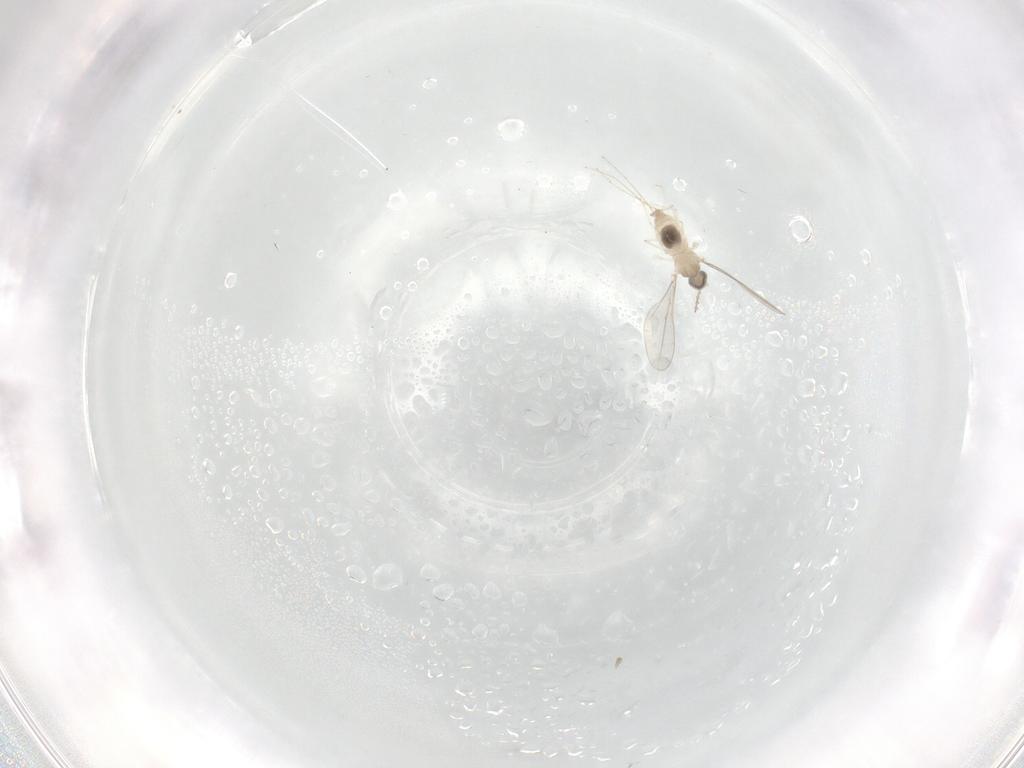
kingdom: Animalia
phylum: Arthropoda
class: Insecta
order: Diptera
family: Cecidomyiidae
